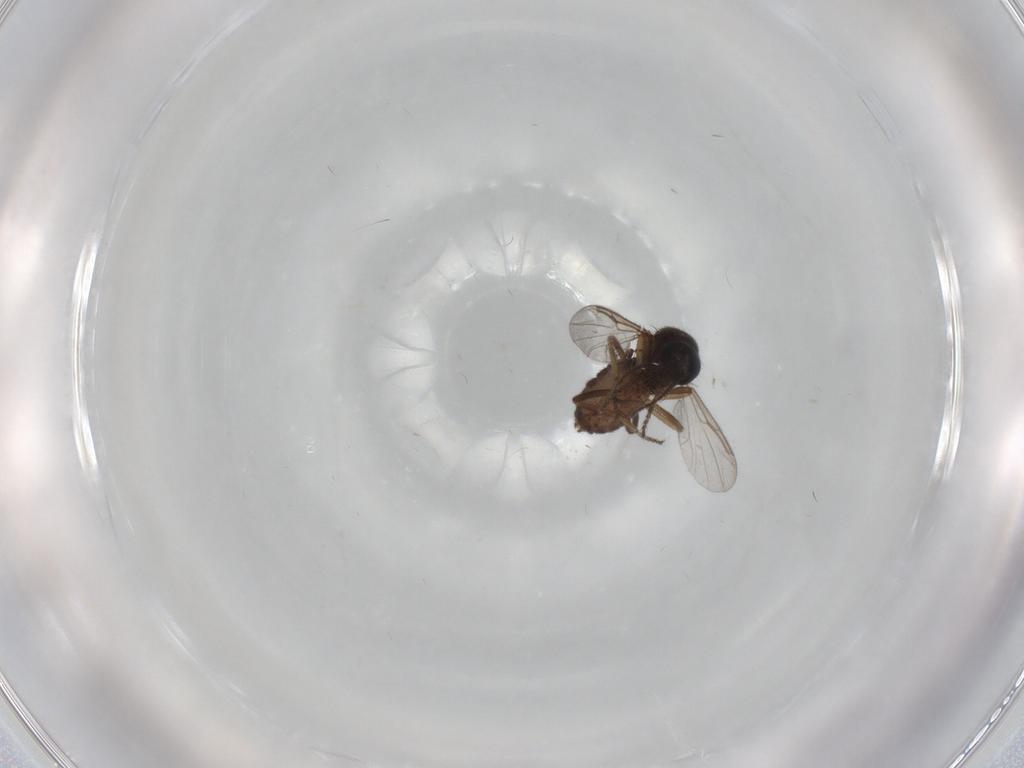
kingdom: Animalia
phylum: Arthropoda
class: Insecta
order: Diptera
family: Ceratopogonidae
